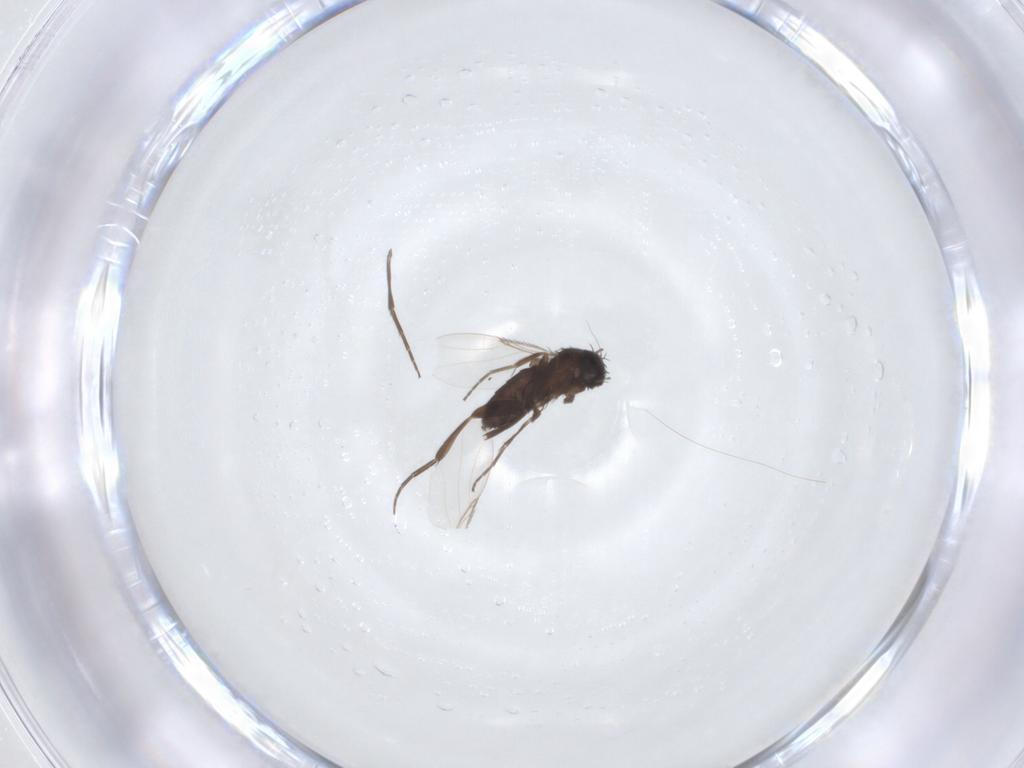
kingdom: Animalia
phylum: Arthropoda
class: Insecta
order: Diptera
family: Phoridae
